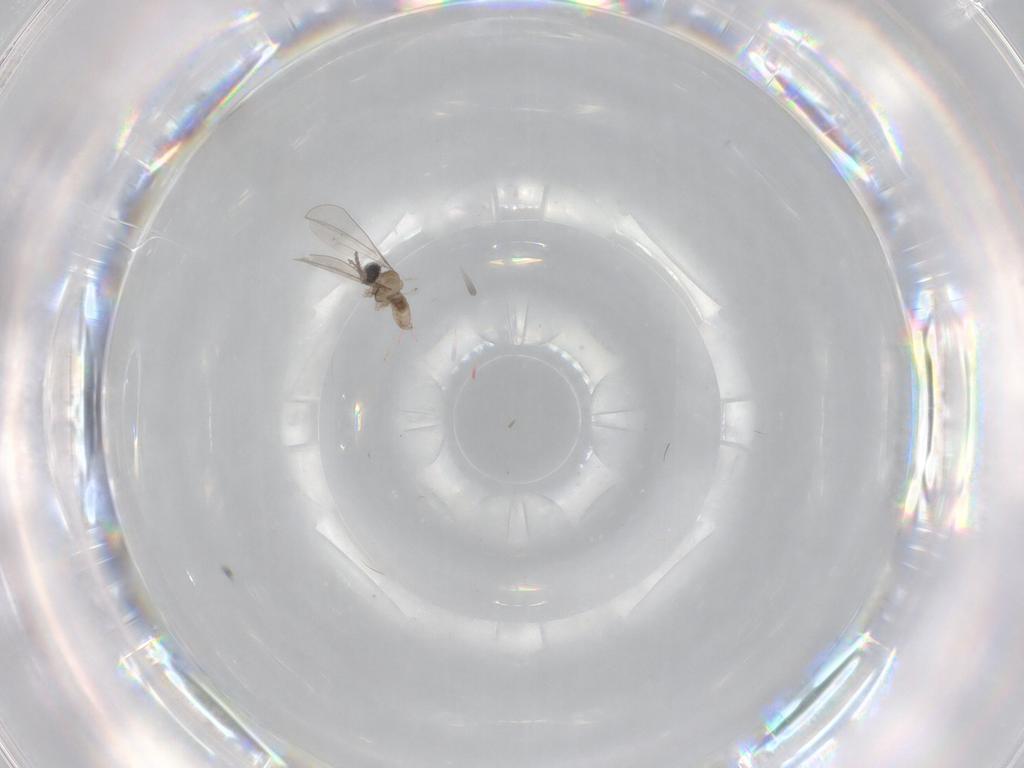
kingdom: Animalia
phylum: Arthropoda
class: Insecta
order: Diptera
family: Cecidomyiidae
